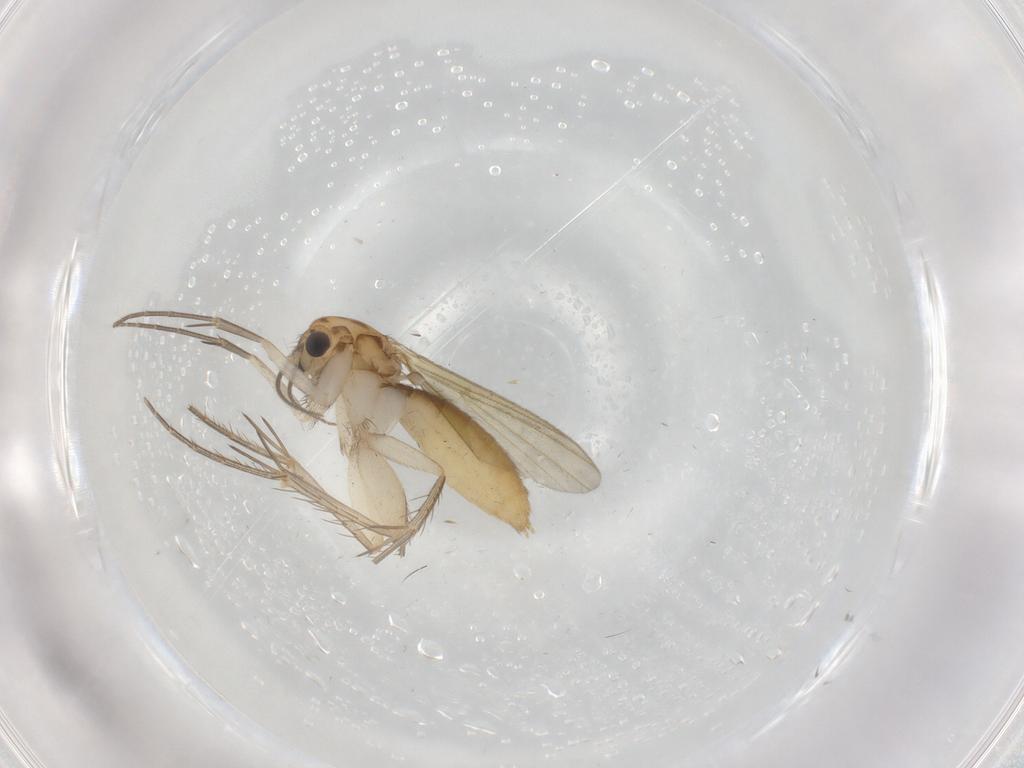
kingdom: Animalia
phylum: Arthropoda
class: Insecta
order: Diptera
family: Mycetophilidae
